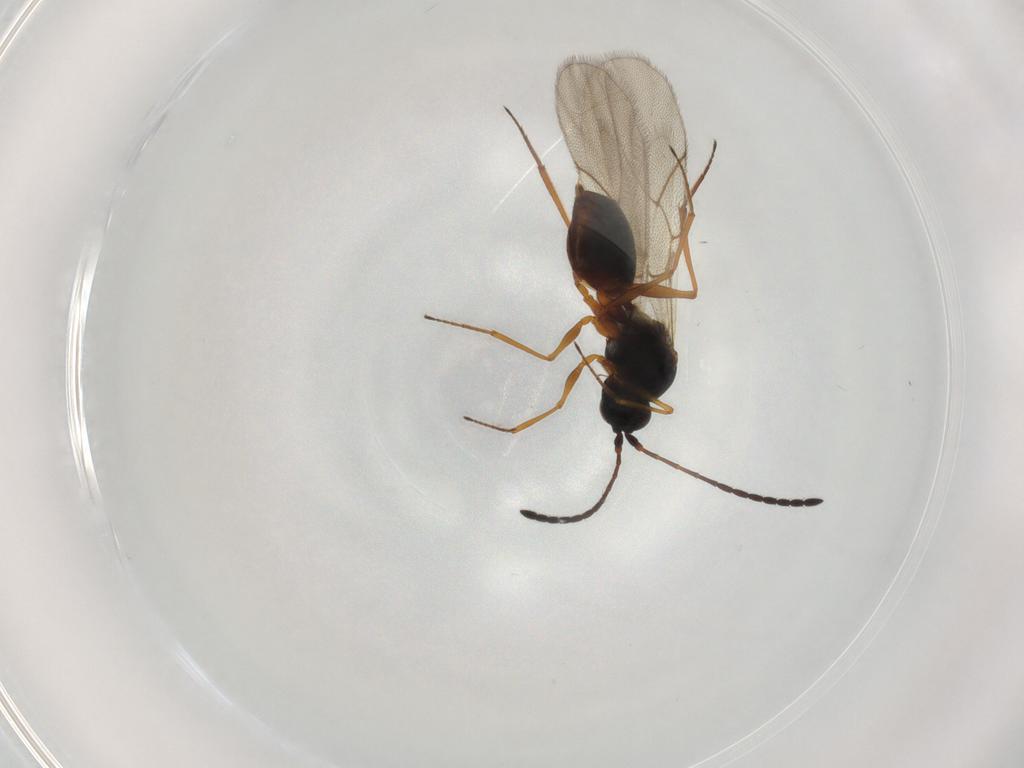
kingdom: Animalia
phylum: Arthropoda
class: Insecta
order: Hymenoptera
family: Figitidae
